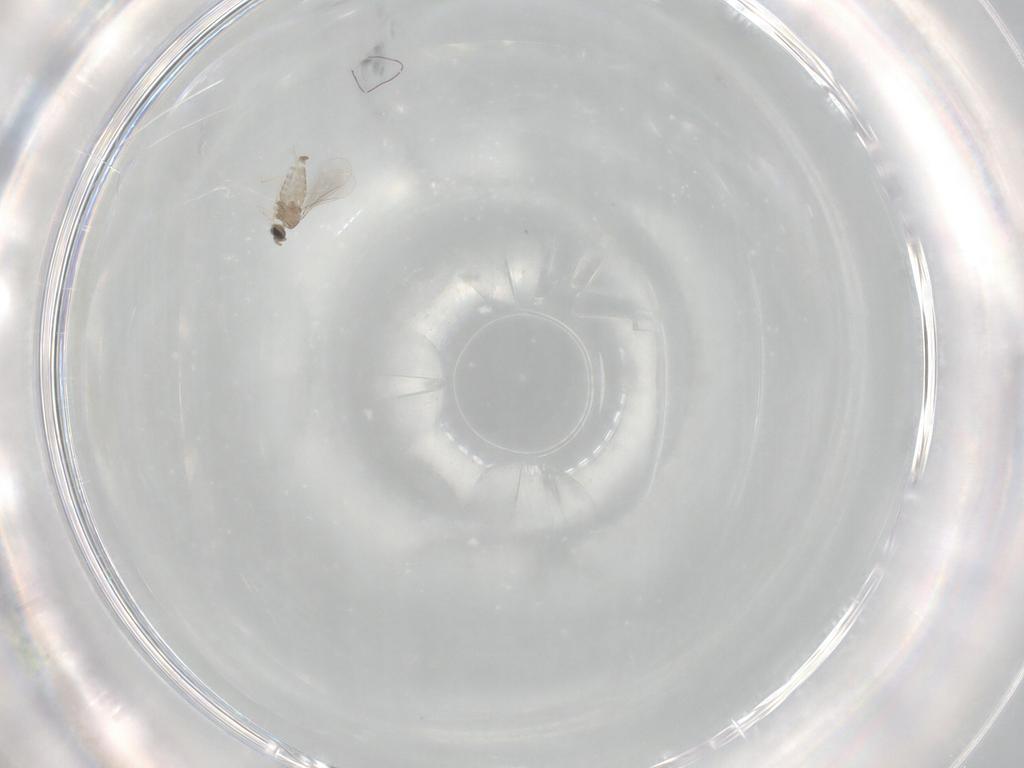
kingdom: Animalia
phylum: Arthropoda
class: Insecta
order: Diptera
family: Cecidomyiidae
